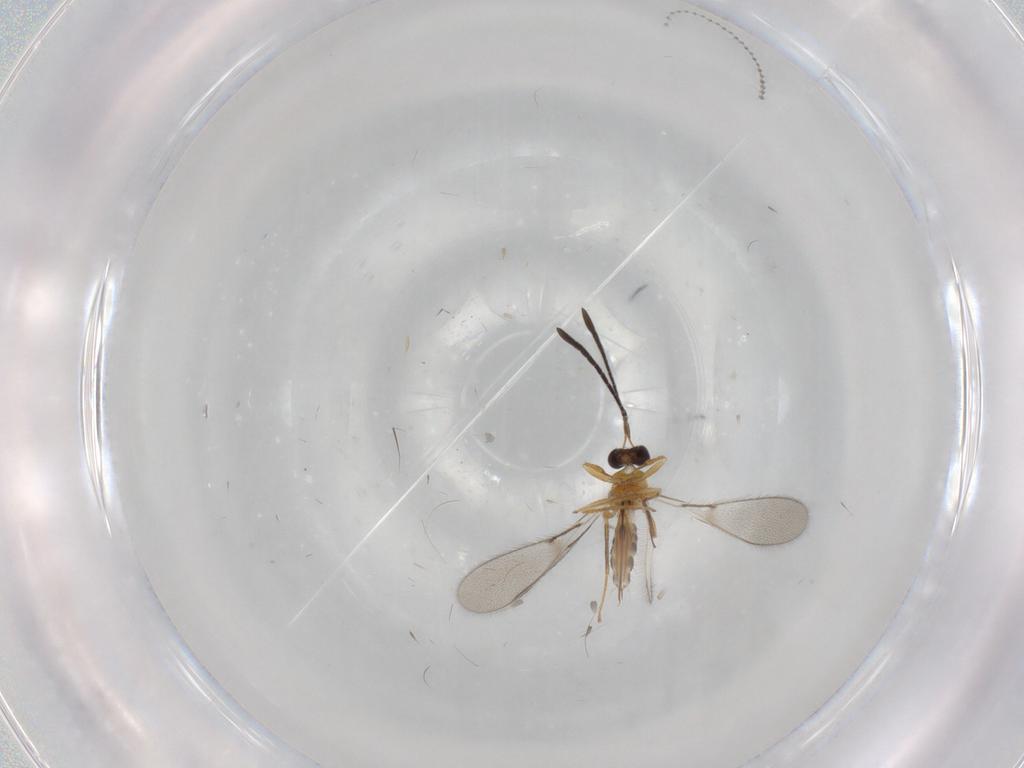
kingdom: Animalia
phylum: Arthropoda
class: Insecta
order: Hymenoptera
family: Mymaridae
